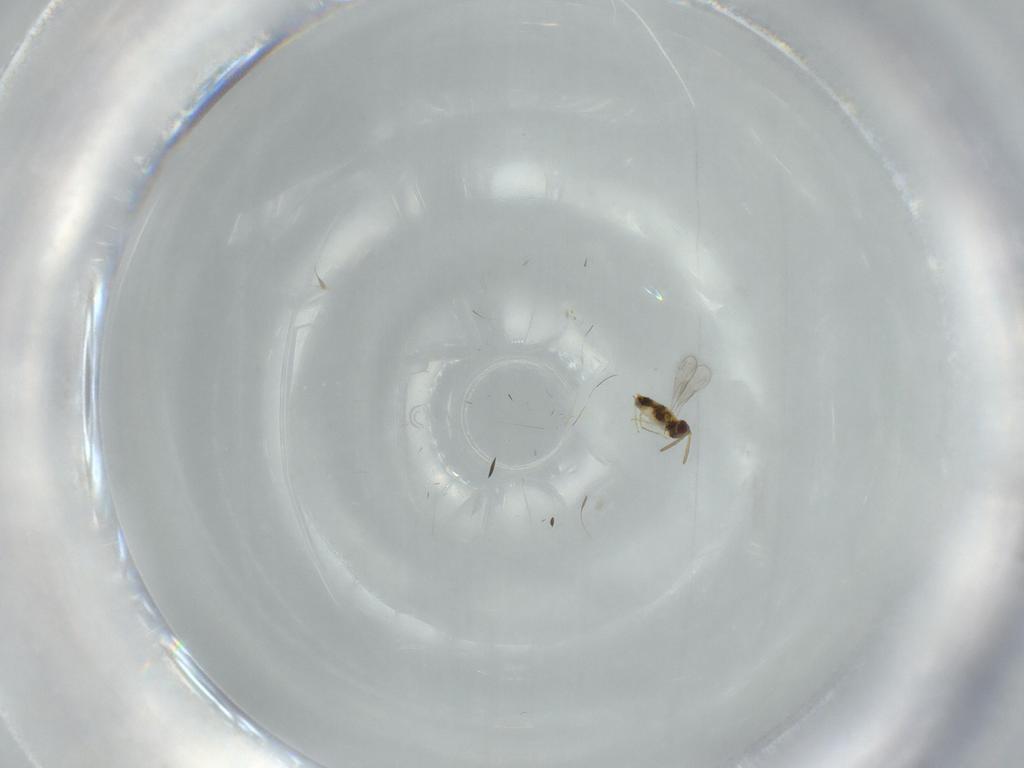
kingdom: Animalia
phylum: Arthropoda
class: Insecta
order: Hymenoptera
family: Aphelinidae
